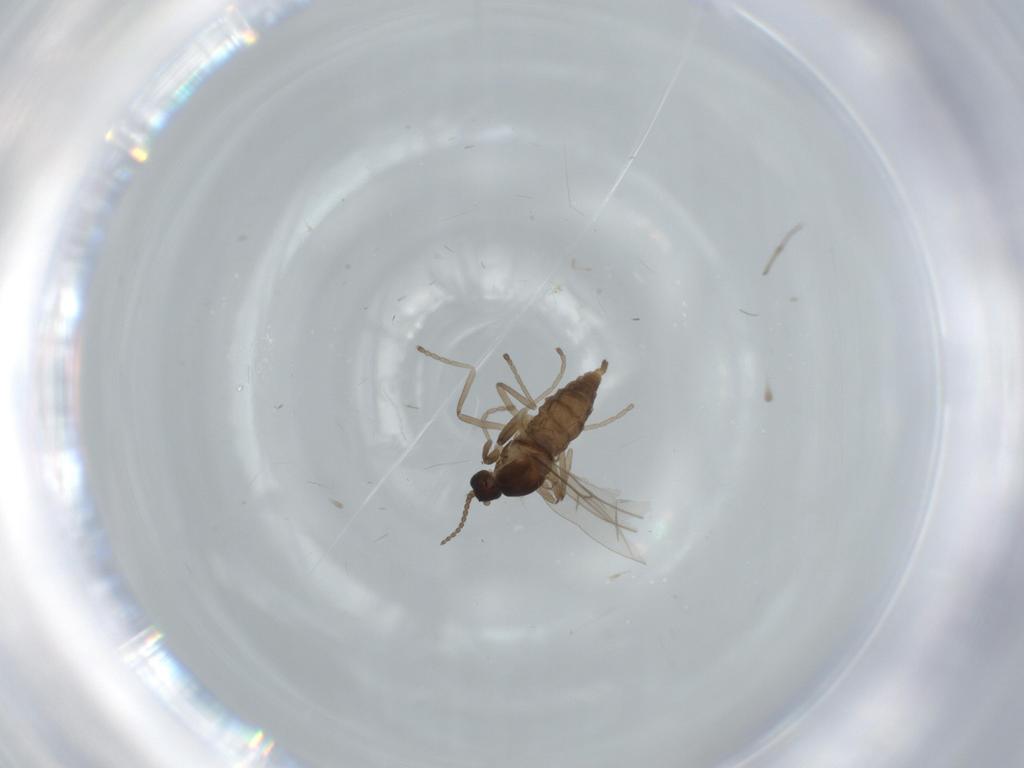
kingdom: Animalia
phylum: Arthropoda
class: Insecta
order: Diptera
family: Cecidomyiidae
